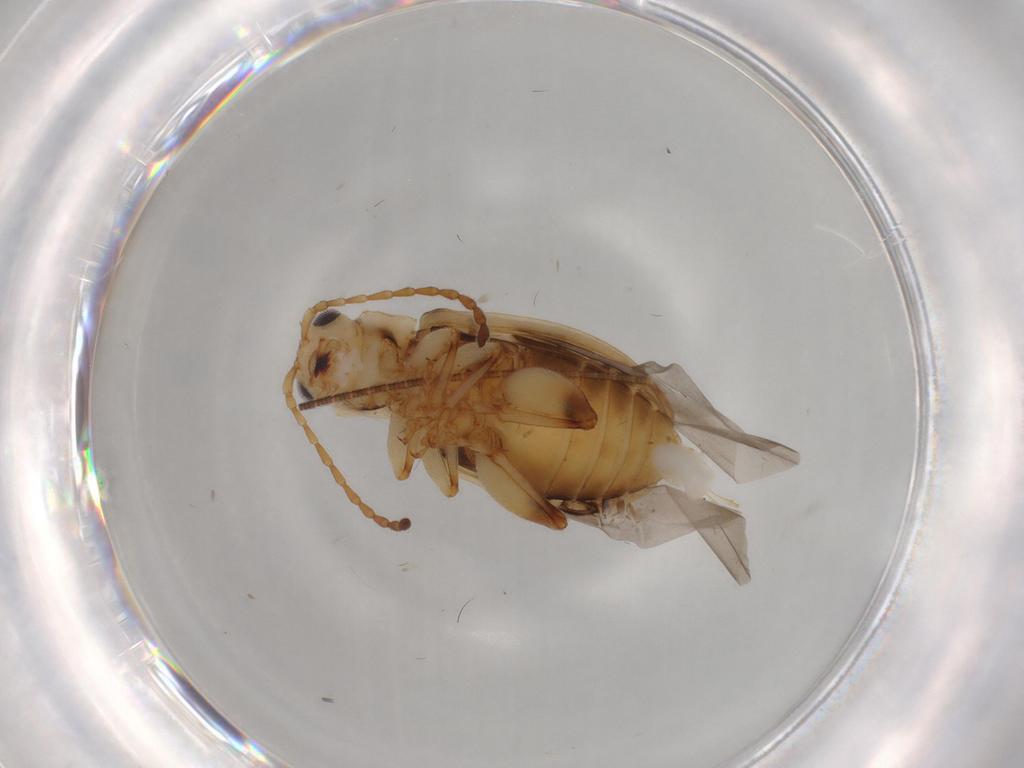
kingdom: Animalia
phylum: Arthropoda
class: Insecta
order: Coleoptera
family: Chrysomelidae
